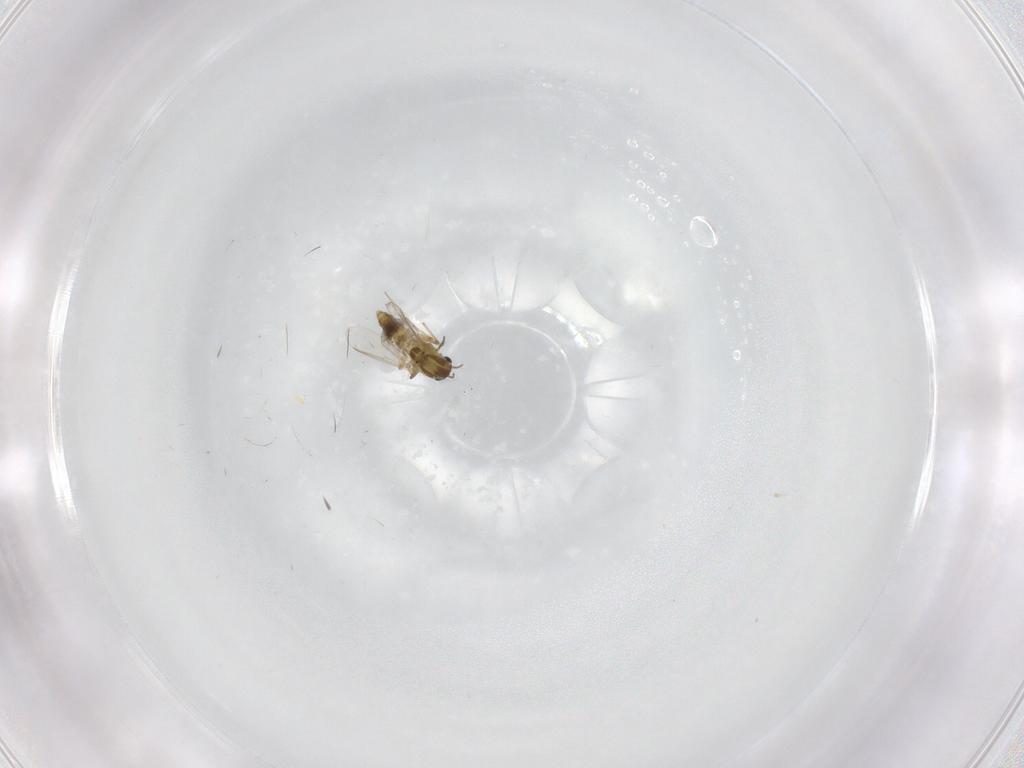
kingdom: Animalia
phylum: Arthropoda
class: Insecta
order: Diptera
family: Chironomidae
